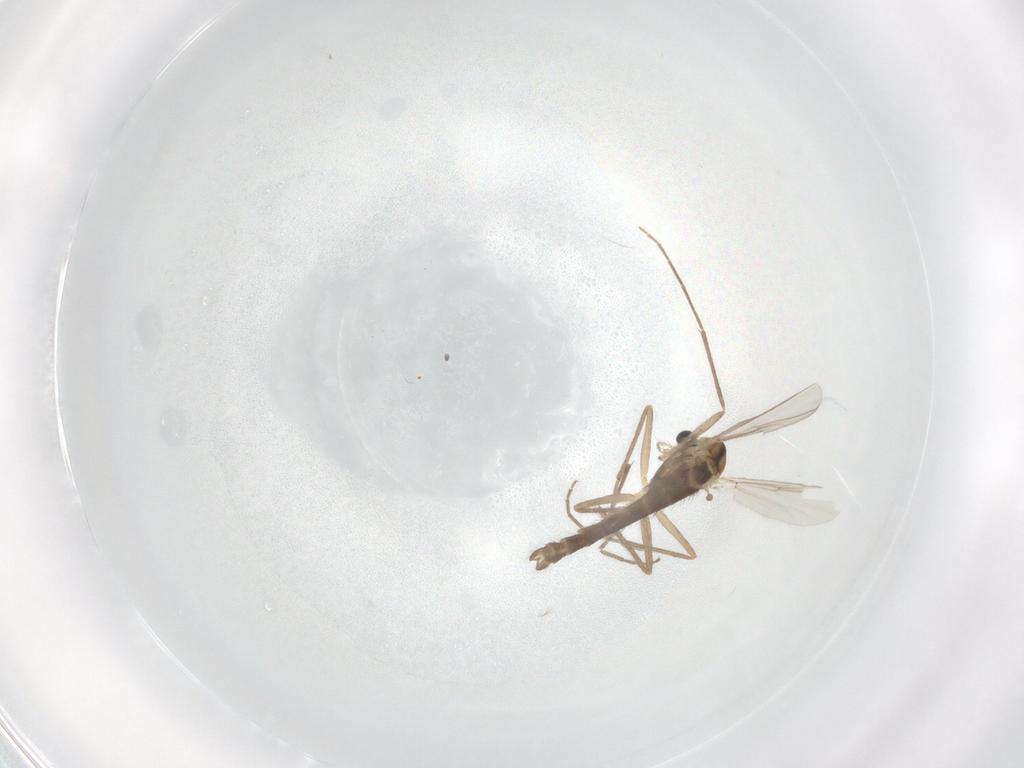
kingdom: Animalia
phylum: Arthropoda
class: Insecta
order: Diptera
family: Chironomidae
